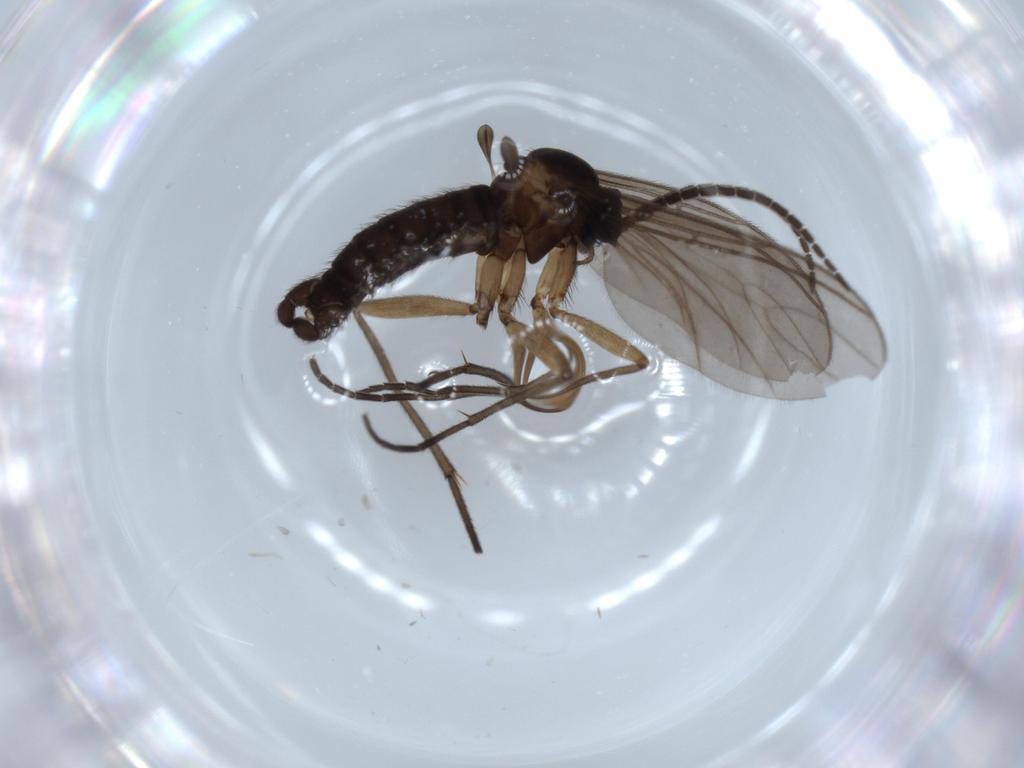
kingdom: Animalia
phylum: Arthropoda
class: Insecta
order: Diptera
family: Sciaridae
